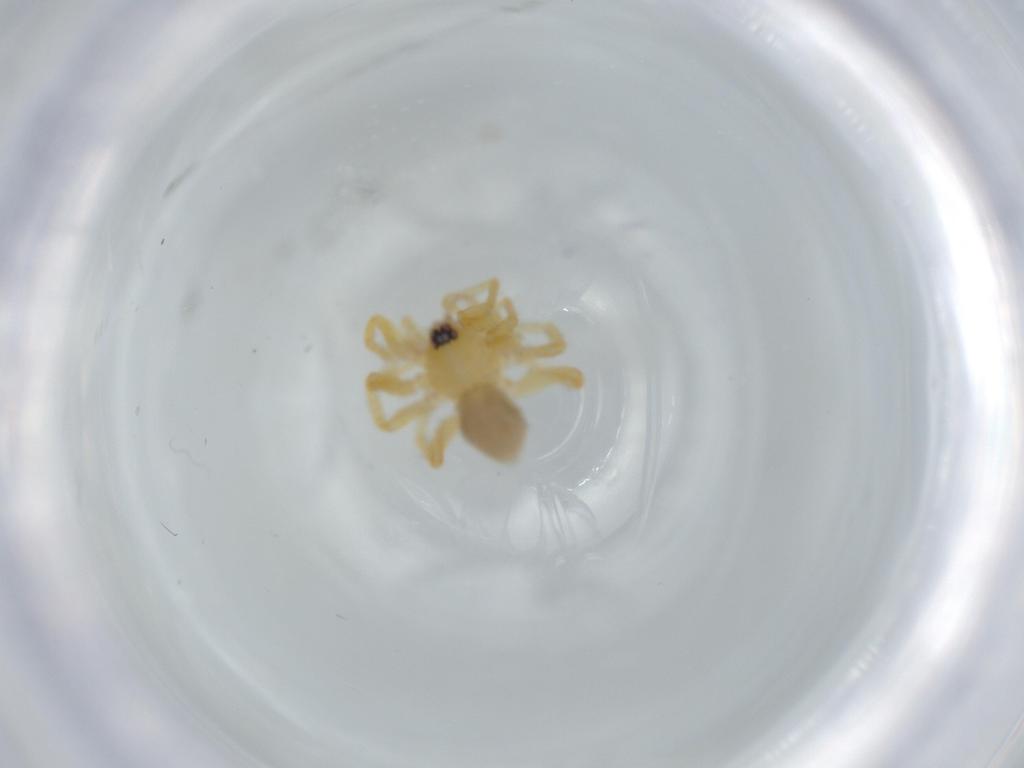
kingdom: Animalia
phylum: Arthropoda
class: Arachnida
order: Araneae
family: Oonopidae
